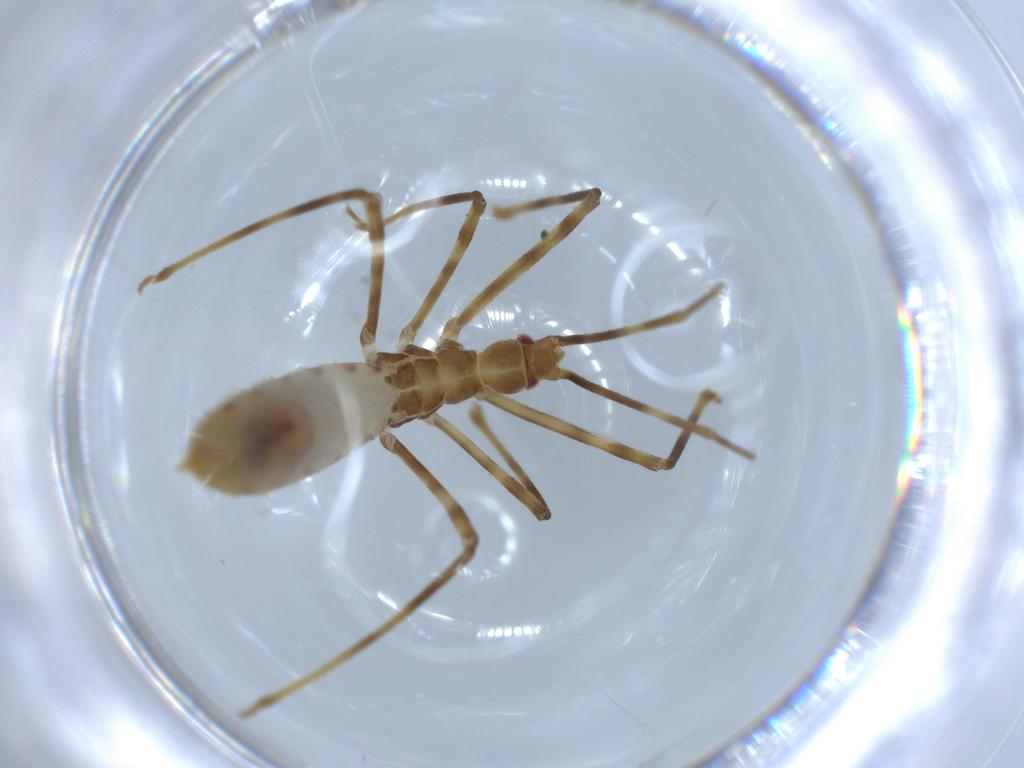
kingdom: Animalia
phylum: Arthropoda
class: Insecta
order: Hemiptera
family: Reduviidae
